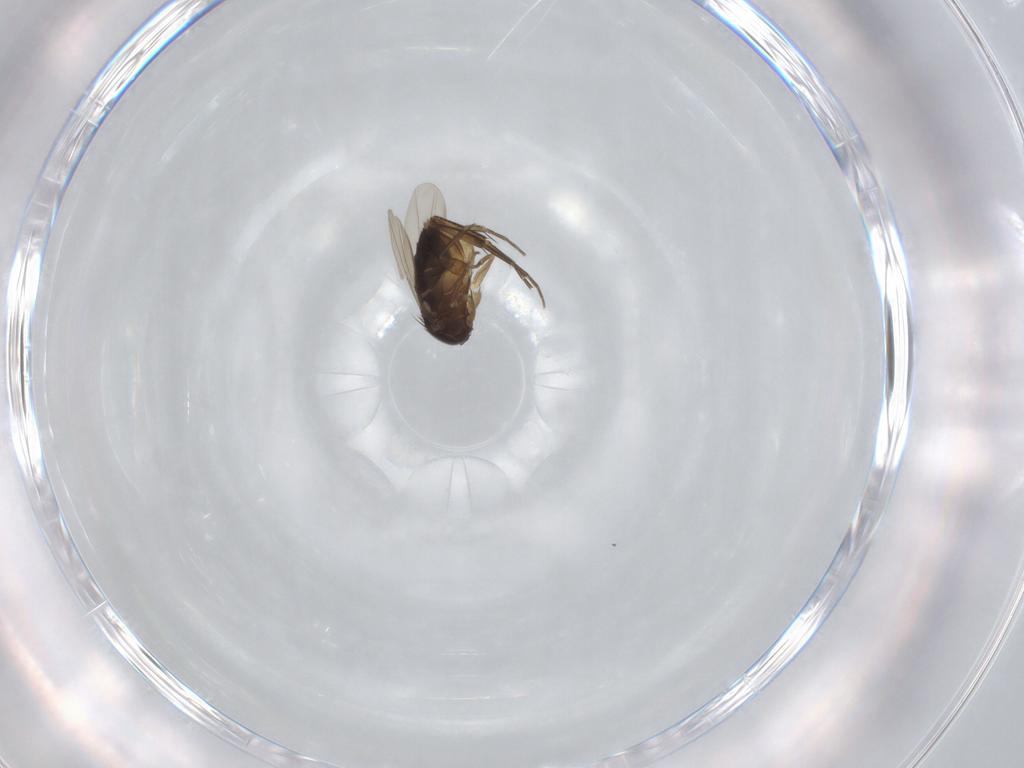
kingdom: Animalia
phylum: Arthropoda
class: Insecta
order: Diptera
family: Phoridae
